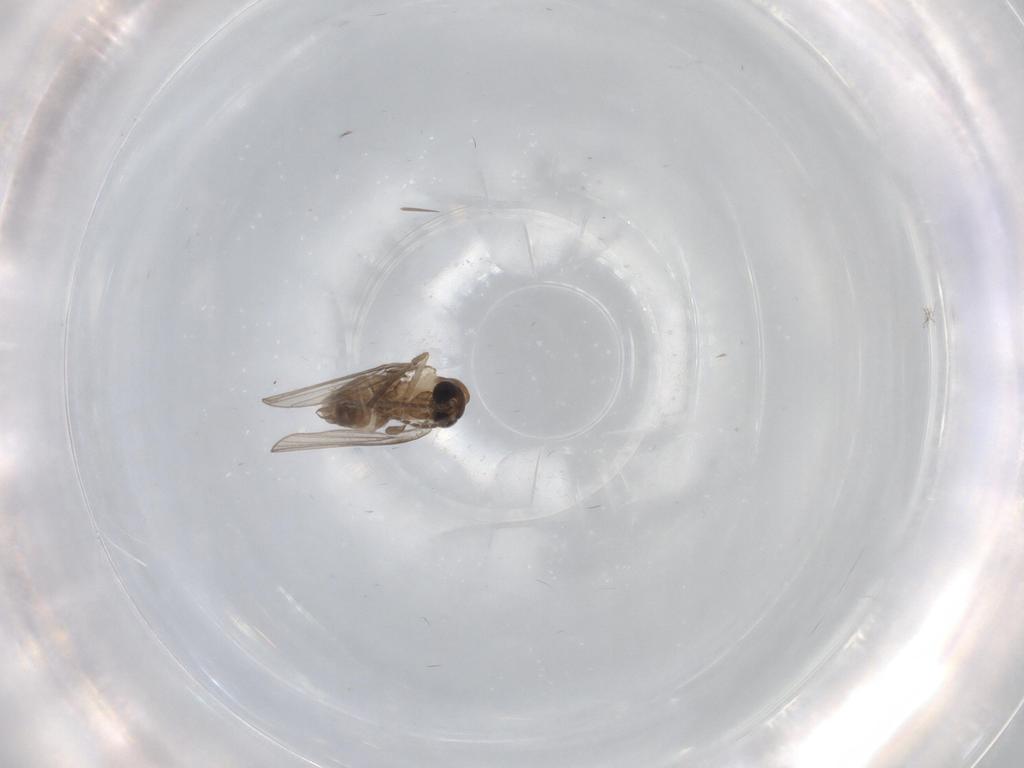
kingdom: Animalia
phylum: Arthropoda
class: Insecta
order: Diptera
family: Psychodidae
